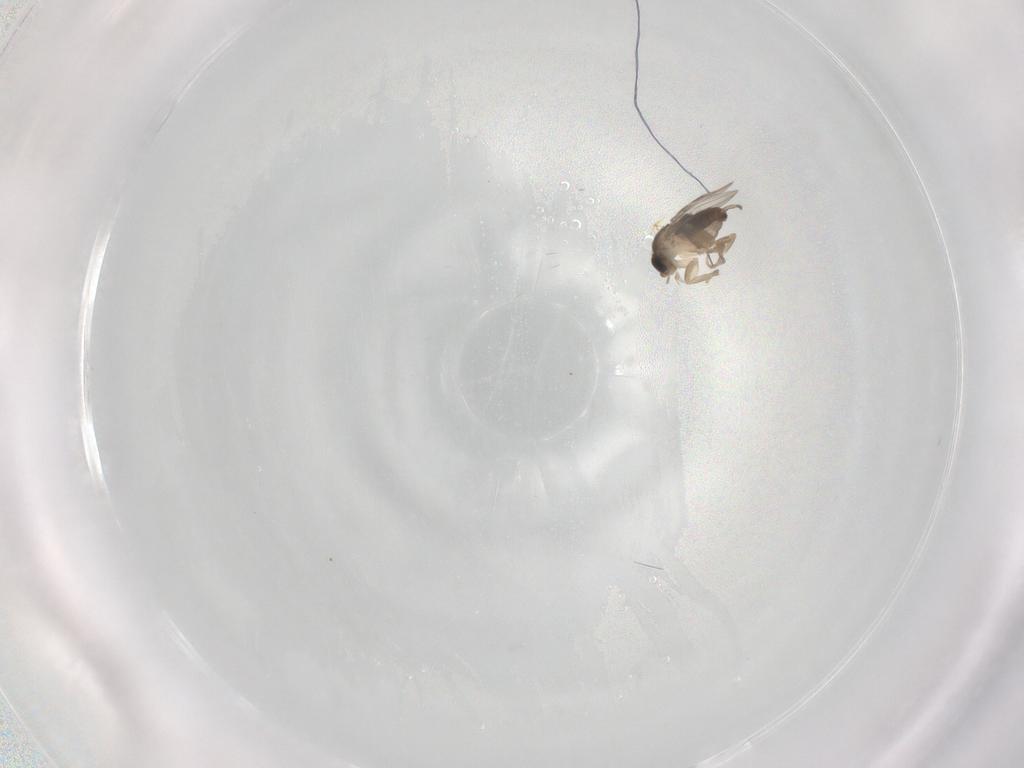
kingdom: Animalia
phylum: Arthropoda
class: Insecta
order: Diptera
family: Phoridae
